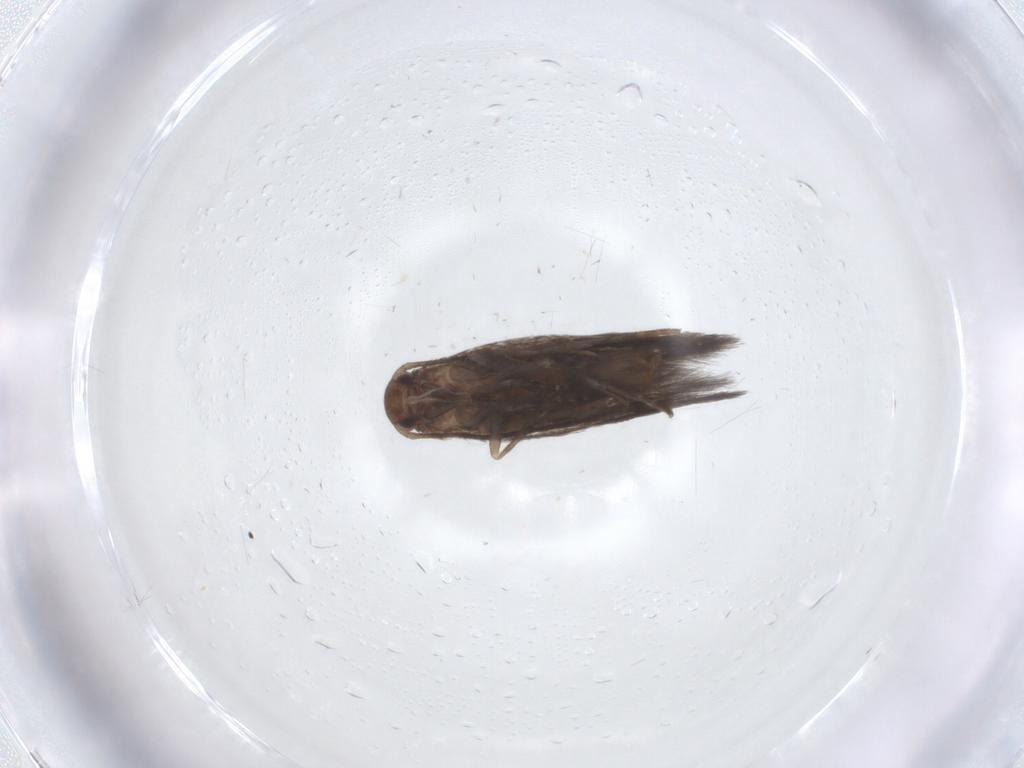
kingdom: Animalia
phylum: Arthropoda
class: Insecta
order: Lepidoptera
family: Elachistidae
